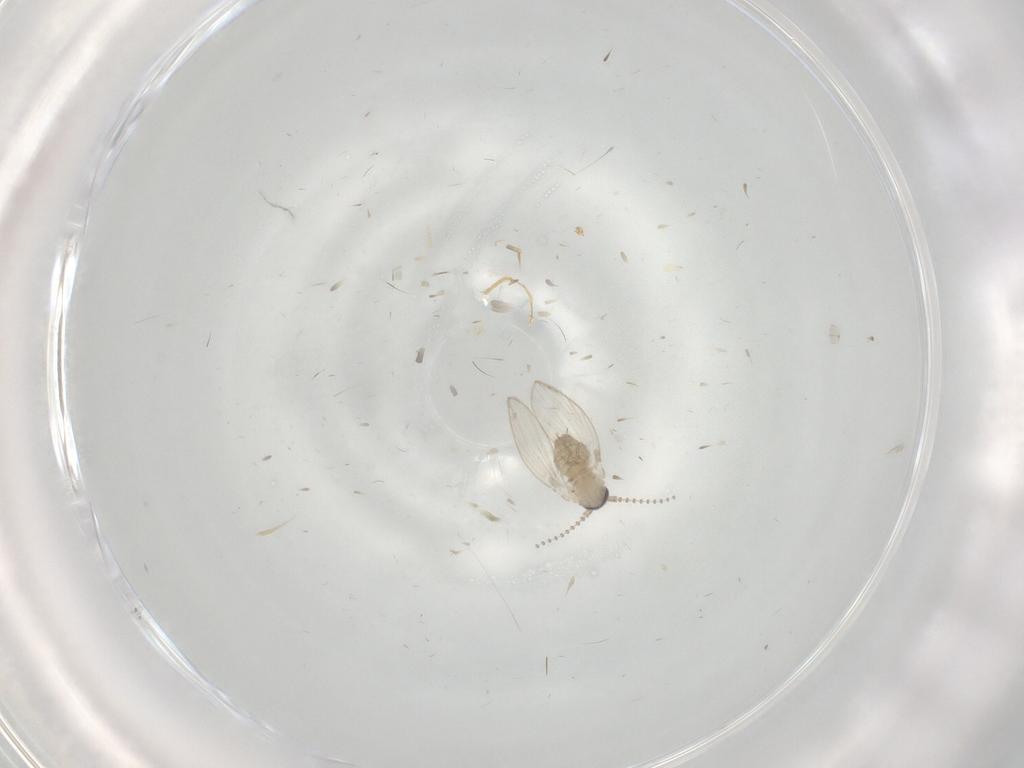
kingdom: Animalia
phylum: Arthropoda
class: Insecta
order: Diptera
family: Psychodidae
